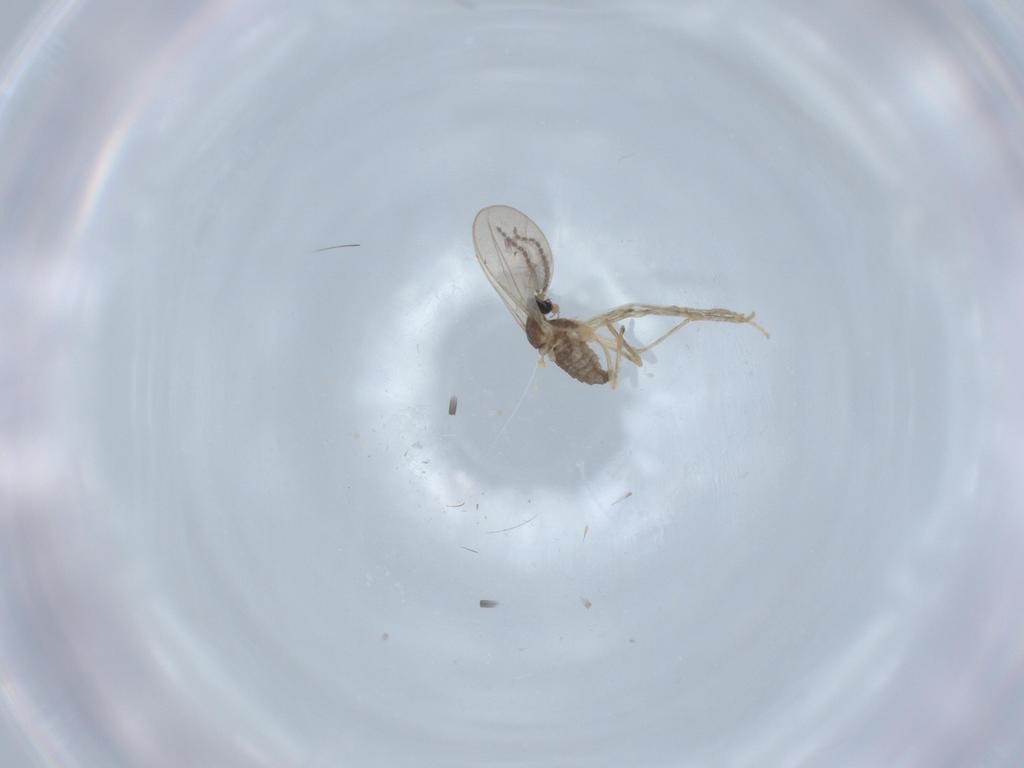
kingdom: Animalia
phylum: Arthropoda
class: Insecta
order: Diptera
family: Cecidomyiidae
